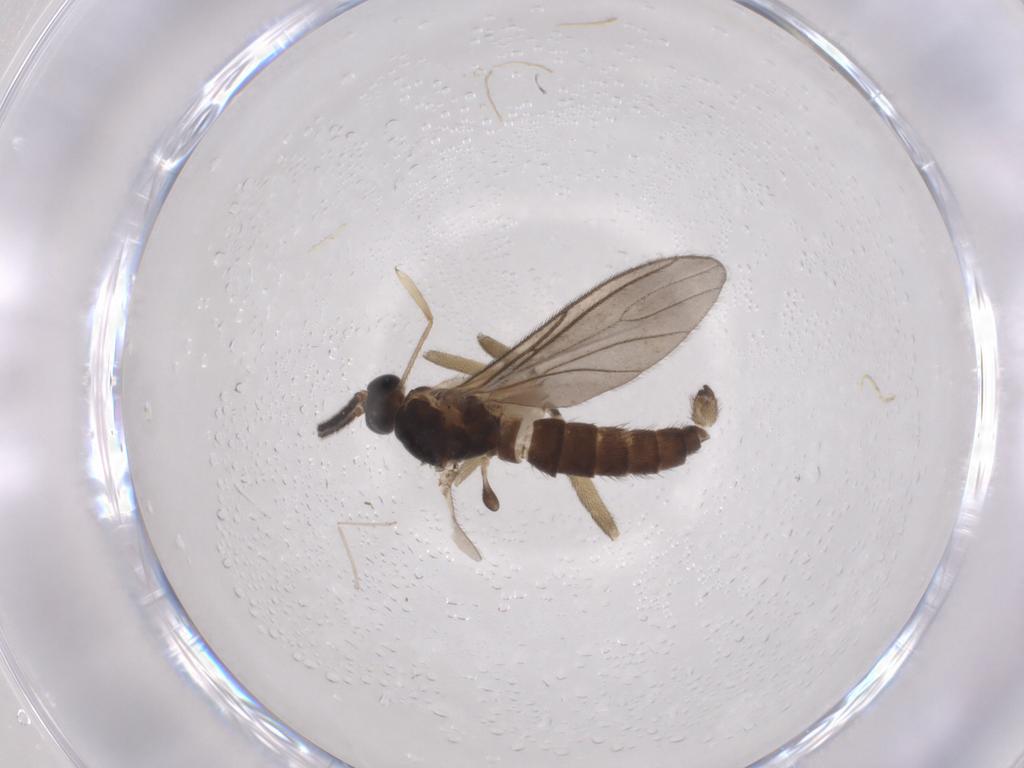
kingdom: Animalia
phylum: Arthropoda
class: Insecta
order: Diptera
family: Sciaridae
